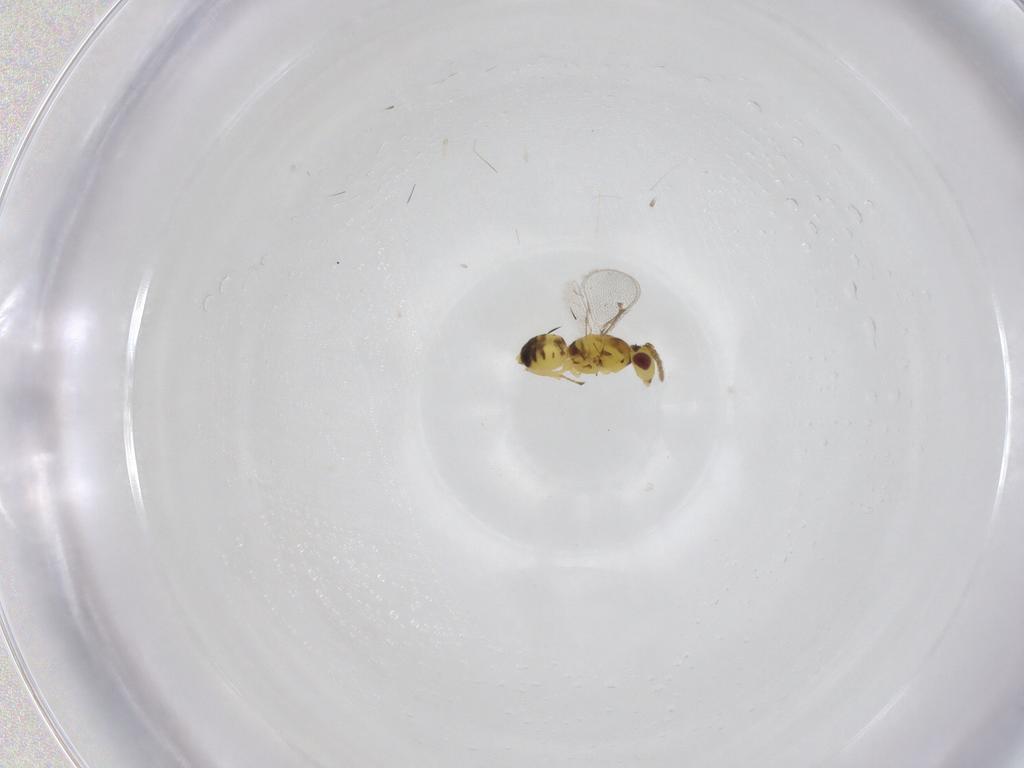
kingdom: Animalia
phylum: Arthropoda
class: Insecta
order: Hymenoptera
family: Eulophidae
